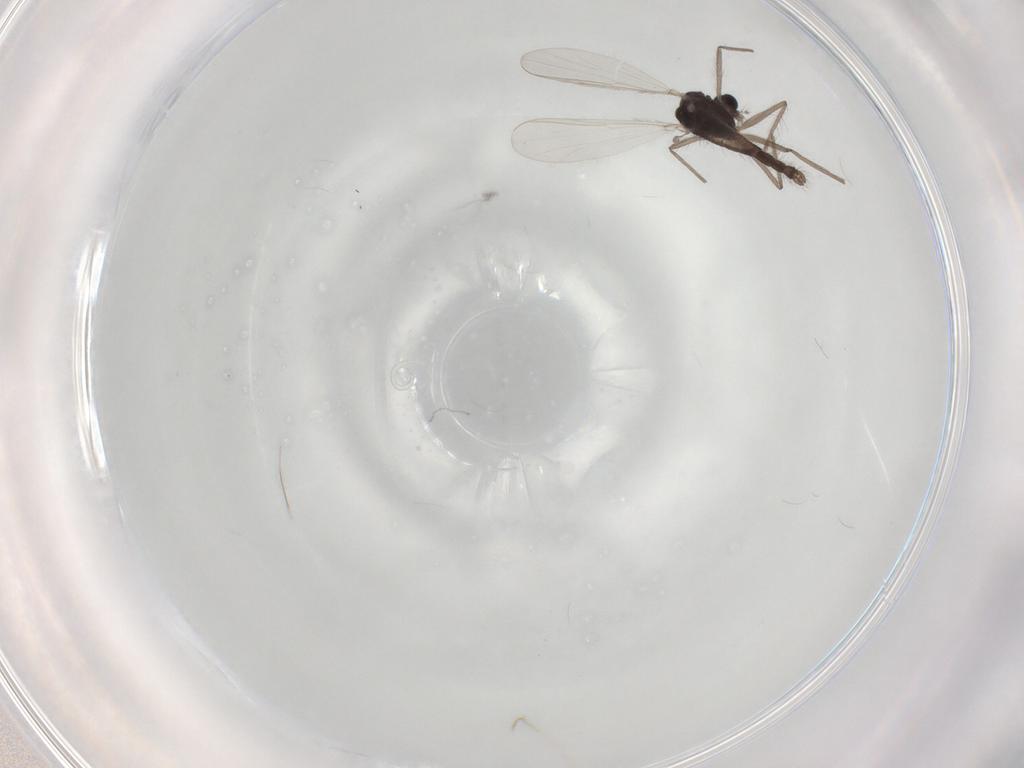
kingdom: Animalia
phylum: Arthropoda
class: Insecta
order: Diptera
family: Chironomidae
